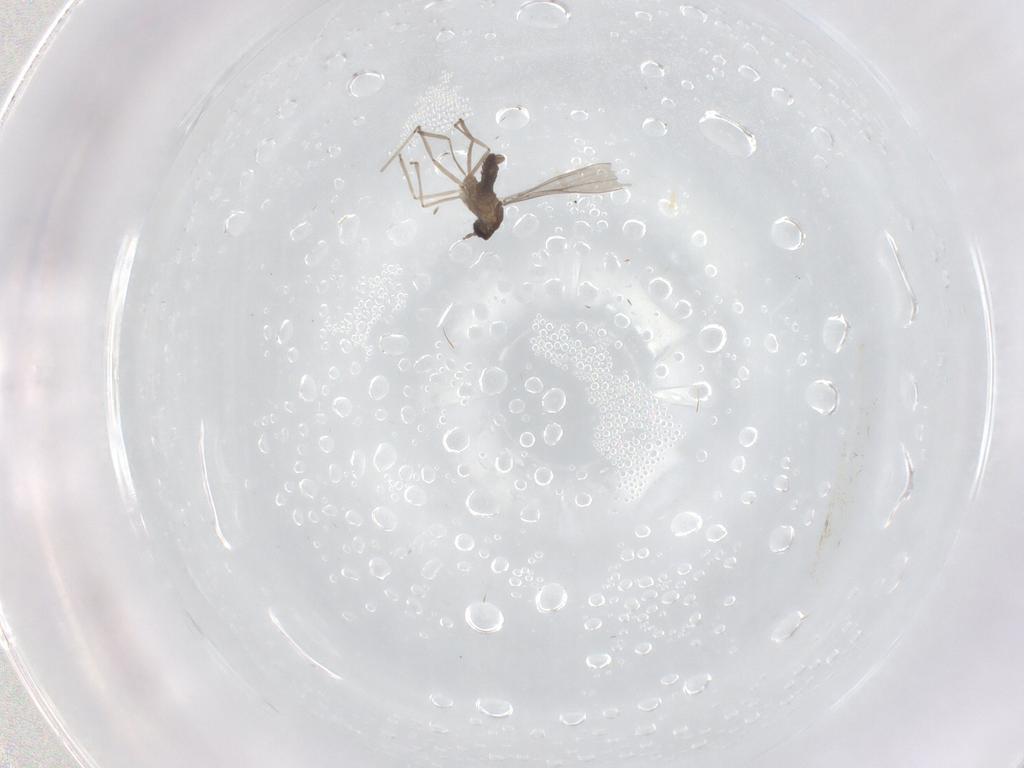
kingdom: Animalia
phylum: Arthropoda
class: Insecta
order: Diptera
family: Cecidomyiidae
